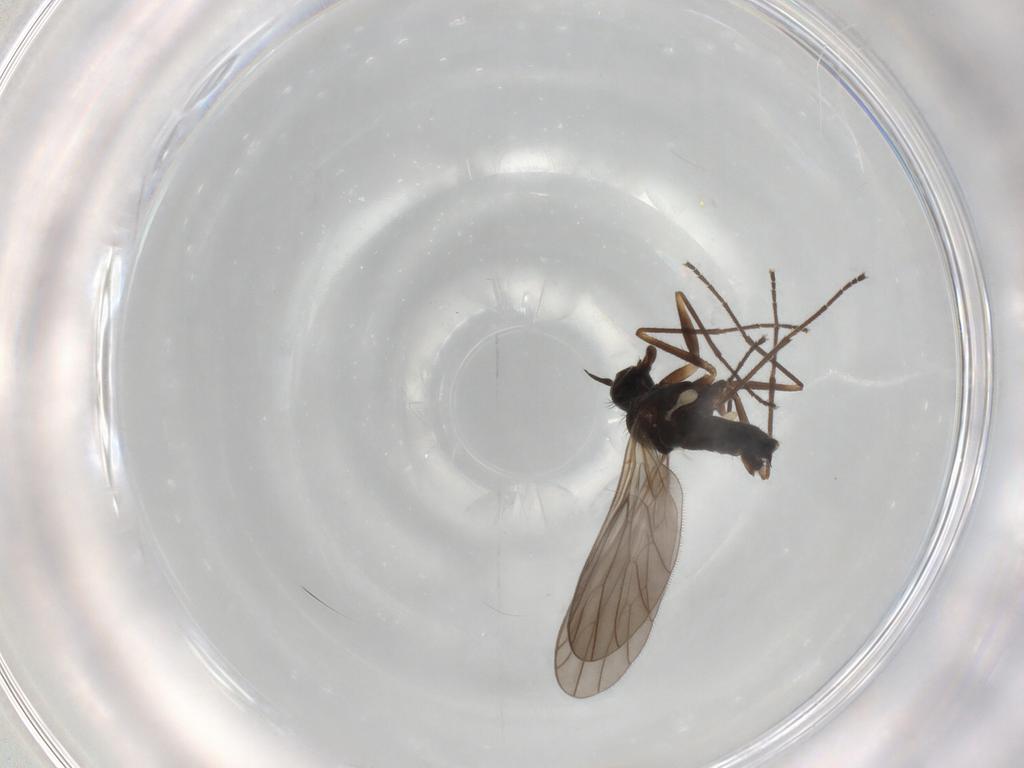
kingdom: Animalia
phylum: Arthropoda
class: Insecta
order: Diptera
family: Empididae
